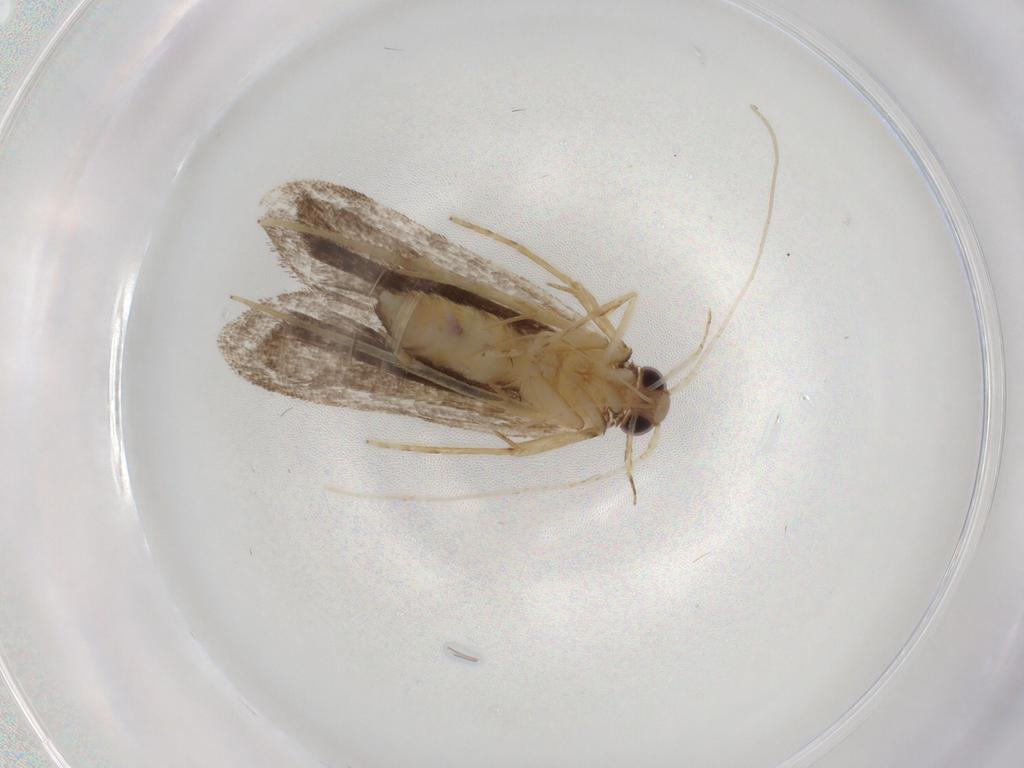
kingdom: Animalia
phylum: Arthropoda
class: Insecta
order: Lepidoptera
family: Cosmopterigidae
